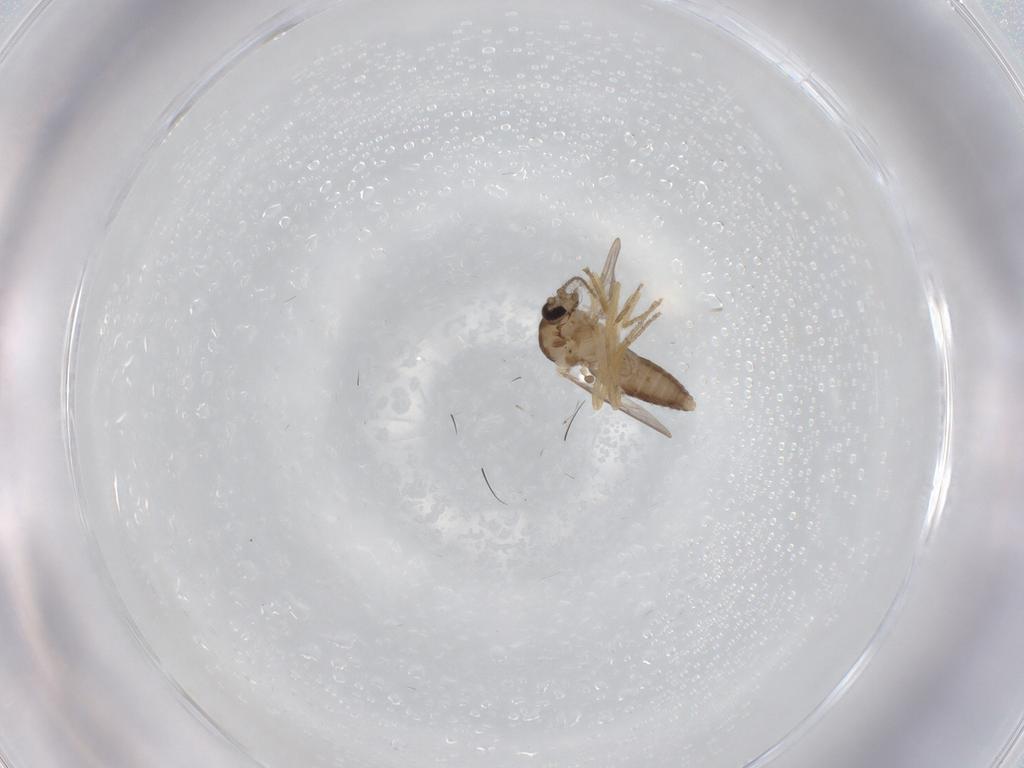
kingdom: Animalia
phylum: Arthropoda
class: Insecta
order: Diptera
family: Ceratopogonidae
